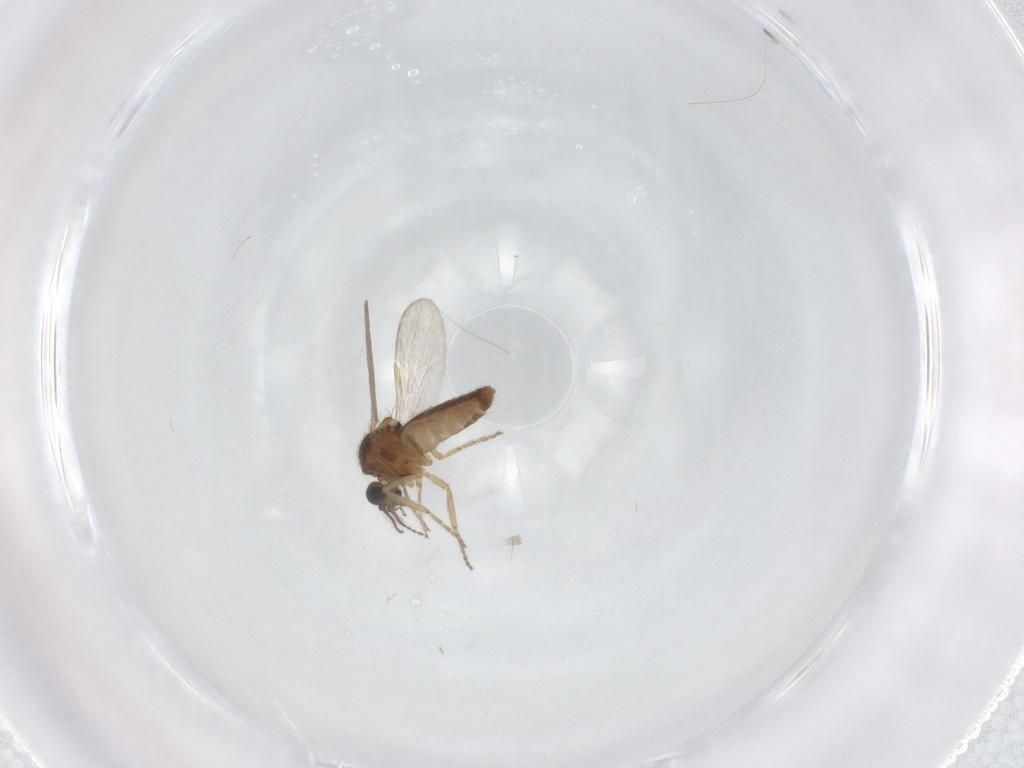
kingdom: Animalia
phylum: Arthropoda
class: Insecta
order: Diptera
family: Ceratopogonidae
